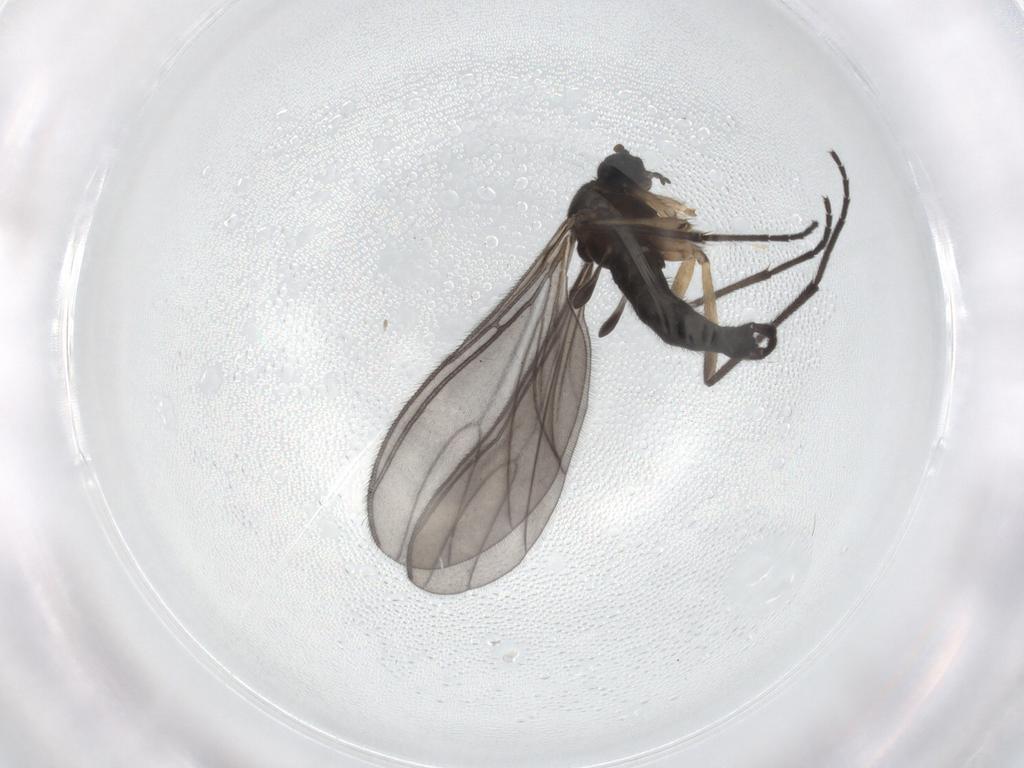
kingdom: Animalia
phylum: Arthropoda
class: Insecta
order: Diptera
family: Sciaridae
